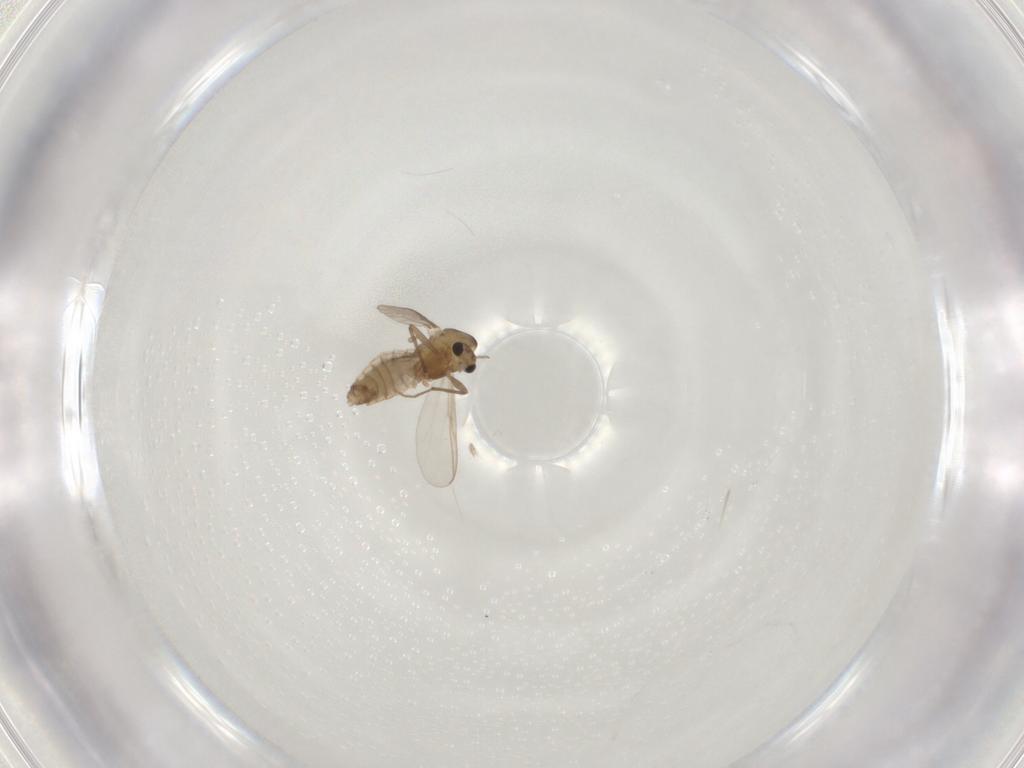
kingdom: Animalia
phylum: Arthropoda
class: Insecta
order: Diptera
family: Chironomidae
